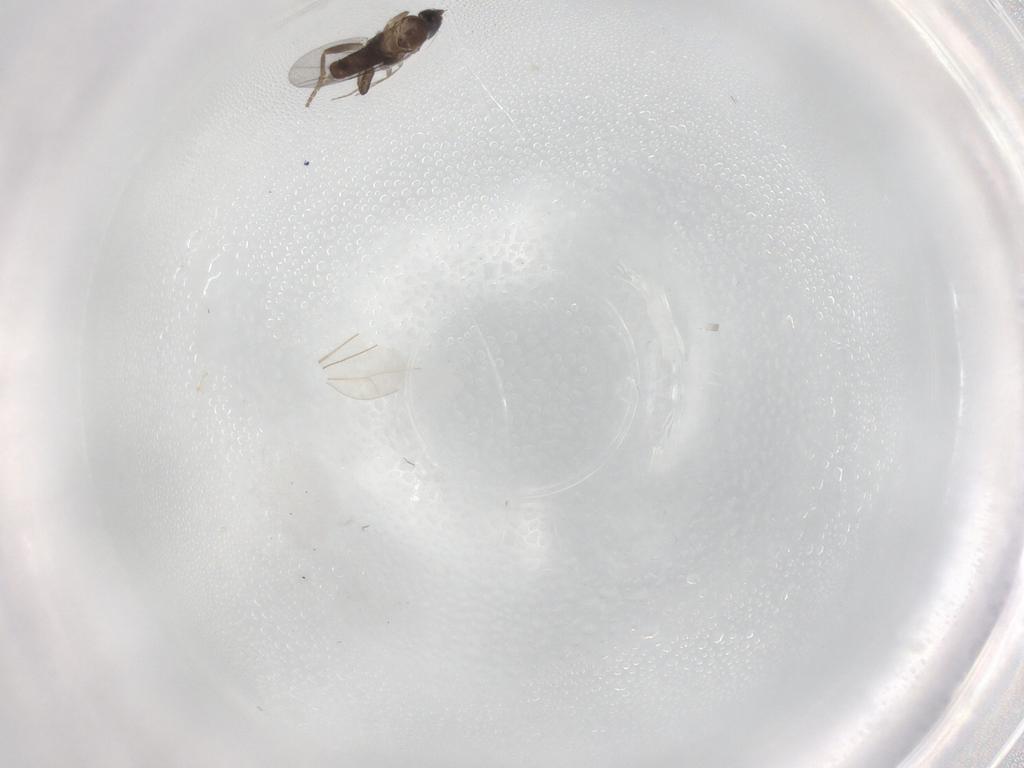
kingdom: Animalia
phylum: Arthropoda
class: Insecta
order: Diptera
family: Cecidomyiidae
